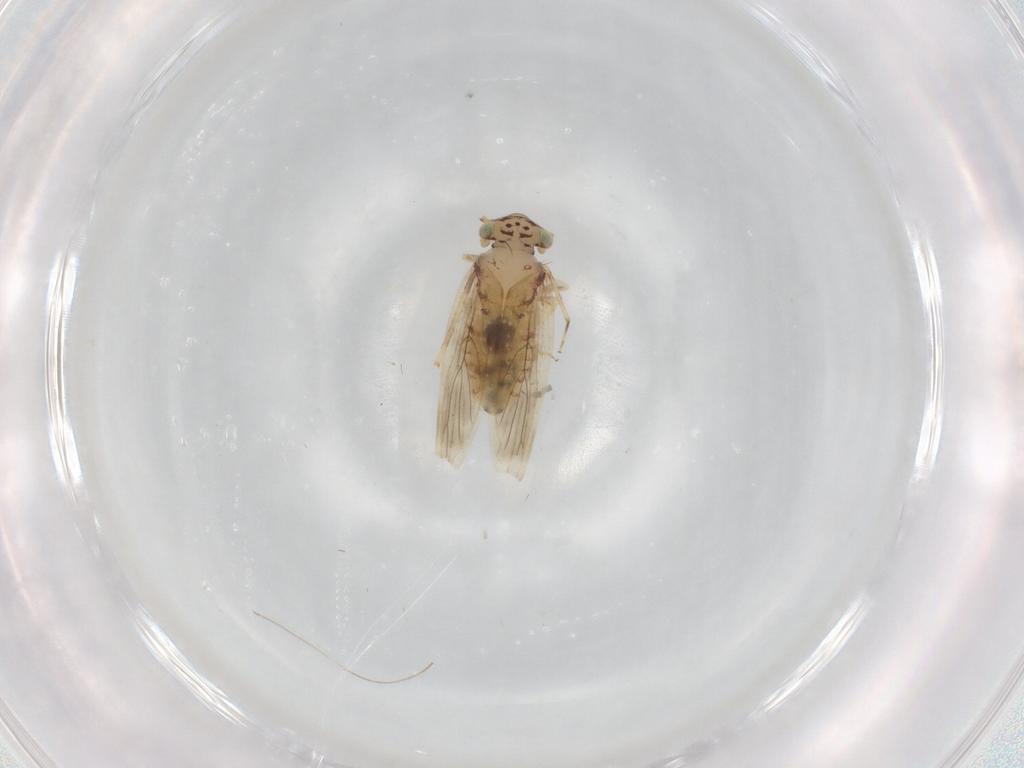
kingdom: Animalia
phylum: Arthropoda
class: Insecta
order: Psocodea
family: Lepidopsocidae
